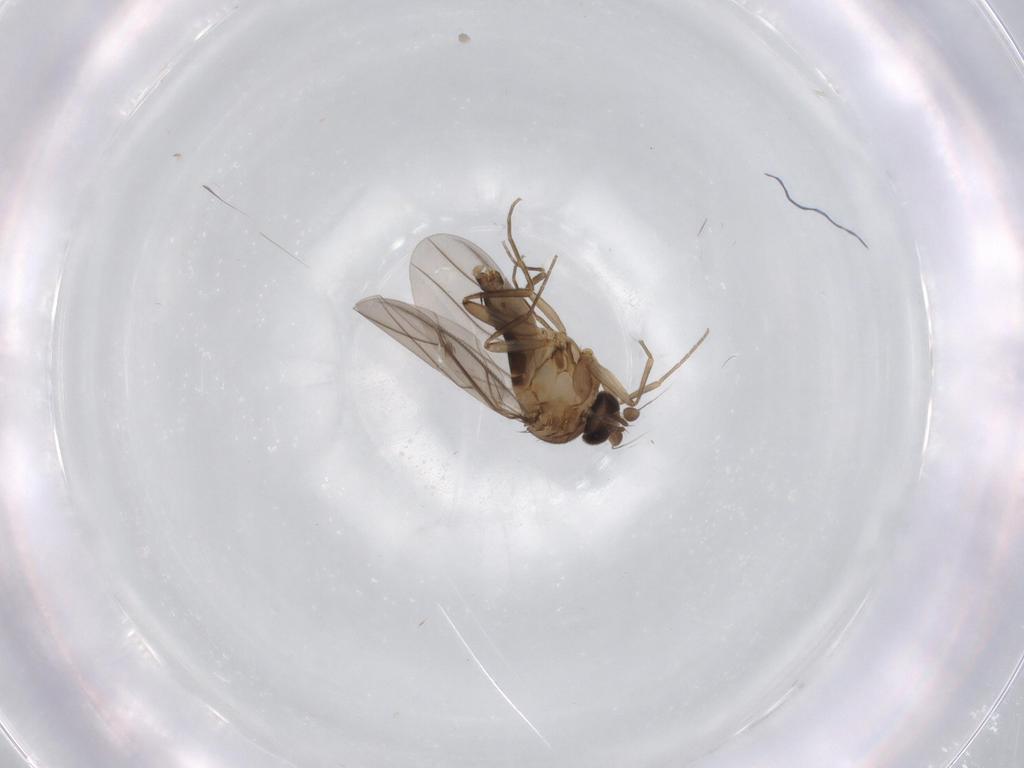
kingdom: Animalia
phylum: Arthropoda
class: Insecta
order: Diptera
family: Phoridae
